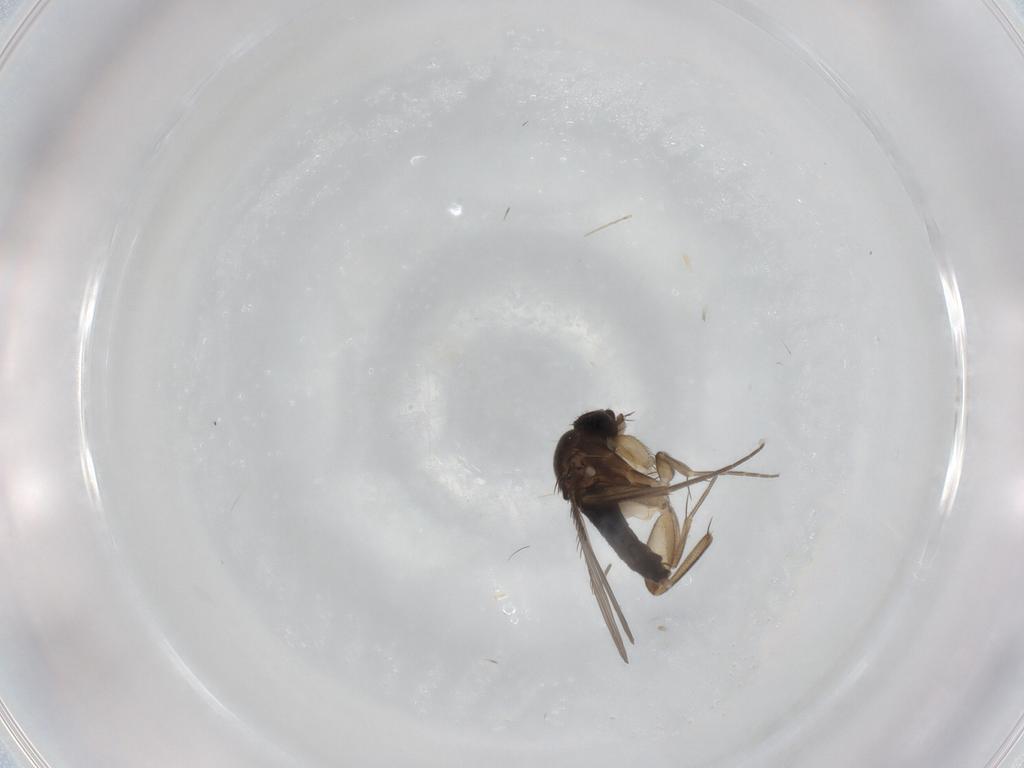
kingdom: Animalia
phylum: Arthropoda
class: Insecta
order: Diptera
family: Phoridae
